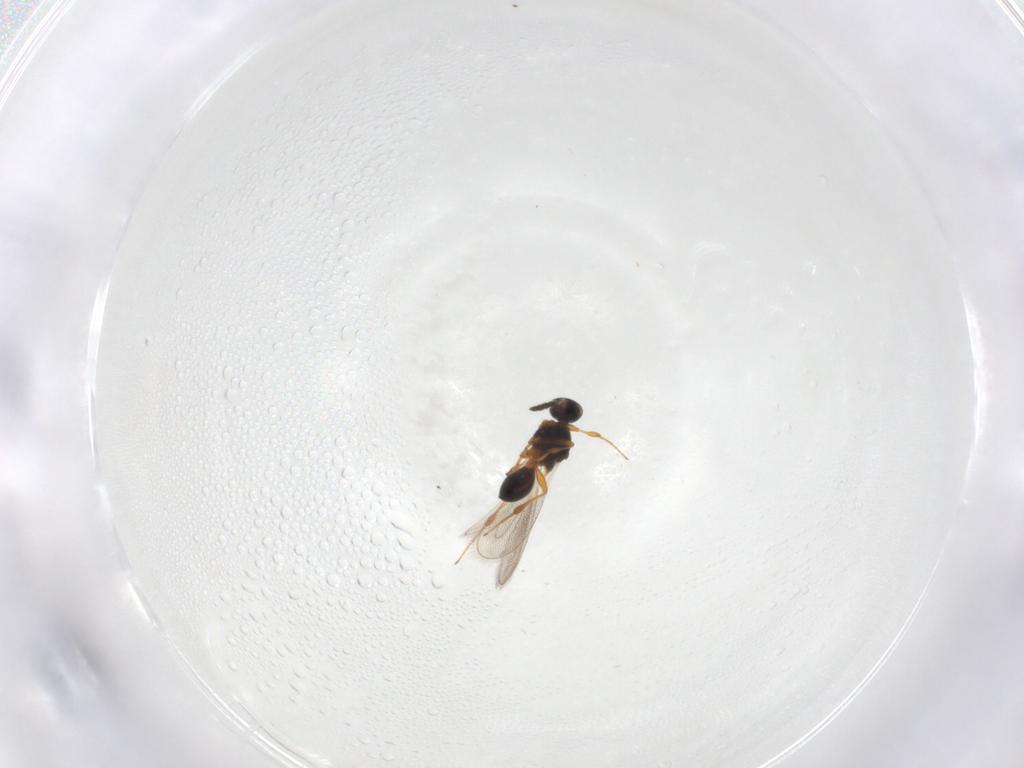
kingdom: Animalia
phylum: Arthropoda
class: Insecta
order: Hymenoptera
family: Platygastridae
